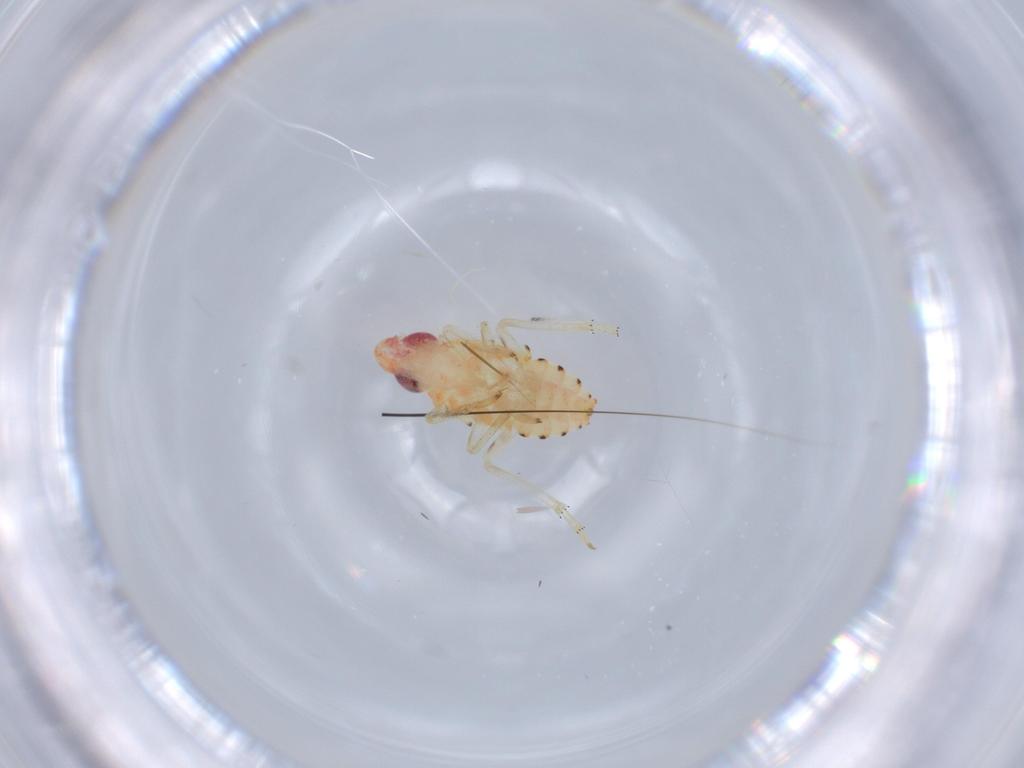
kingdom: Animalia
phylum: Arthropoda
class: Insecta
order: Hemiptera
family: Tropiduchidae
